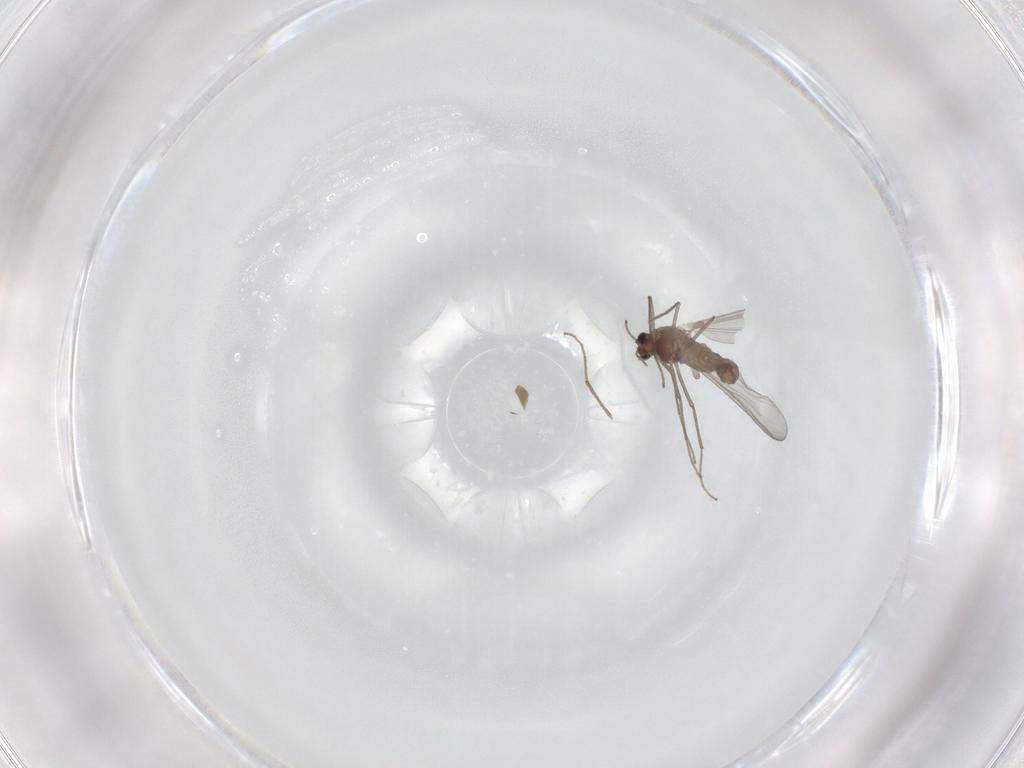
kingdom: Animalia
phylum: Arthropoda
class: Insecta
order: Diptera
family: Chironomidae
